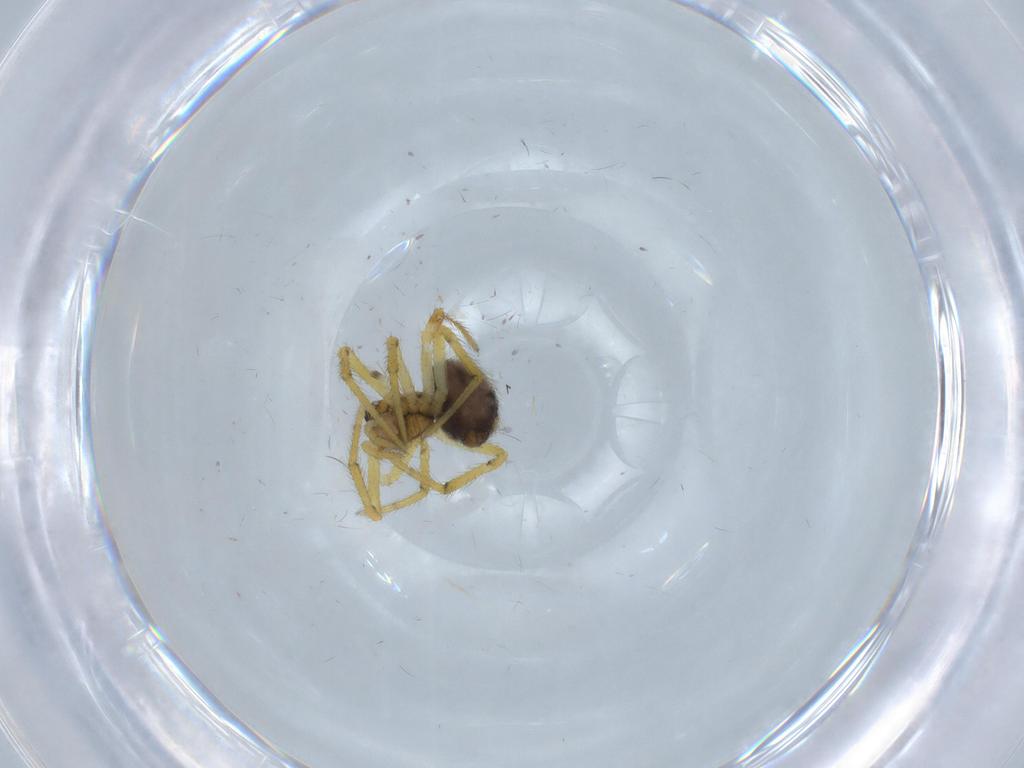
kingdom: Animalia
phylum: Arthropoda
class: Arachnida
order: Araneae
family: Theridiidae
